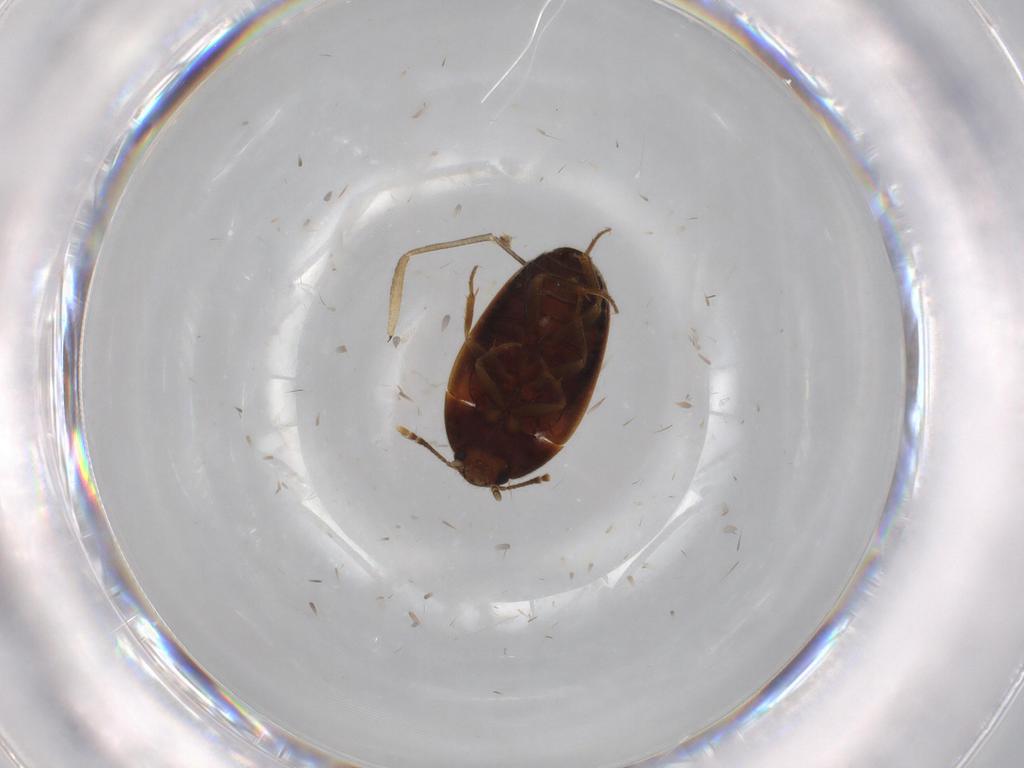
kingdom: Animalia
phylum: Arthropoda
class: Insecta
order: Coleoptera
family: Mycetophagidae
